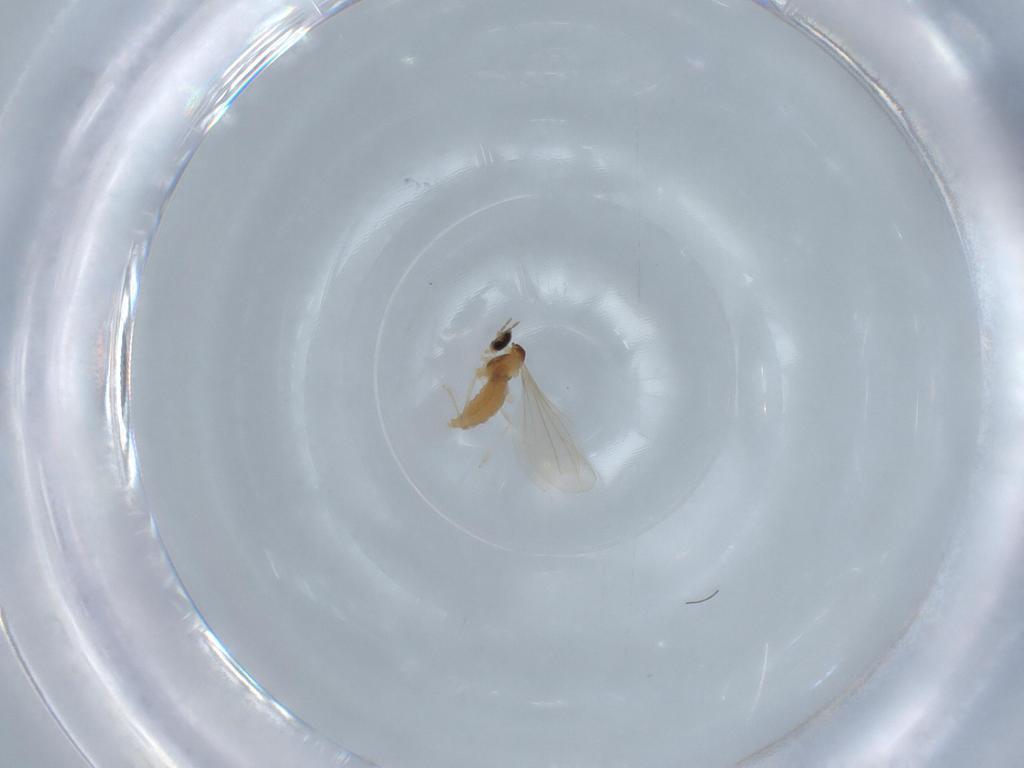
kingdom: Animalia
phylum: Arthropoda
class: Insecta
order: Diptera
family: Cecidomyiidae
